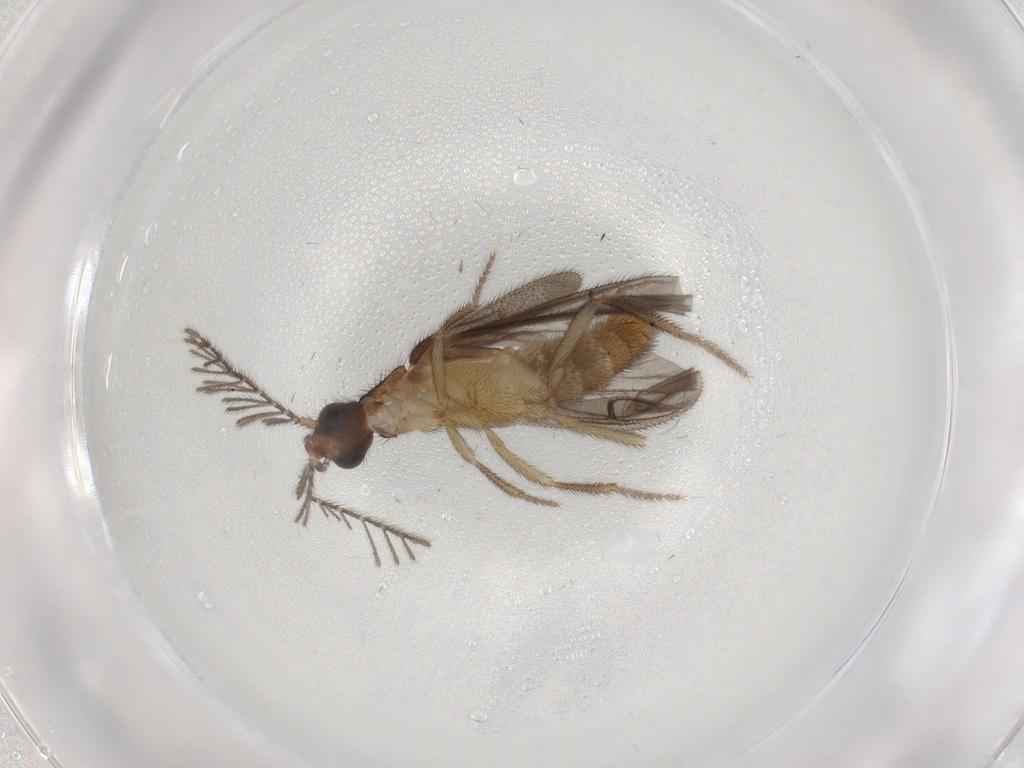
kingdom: Animalia
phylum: Arthropoda
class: Insecta
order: Coleoptera
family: Phengodidae
